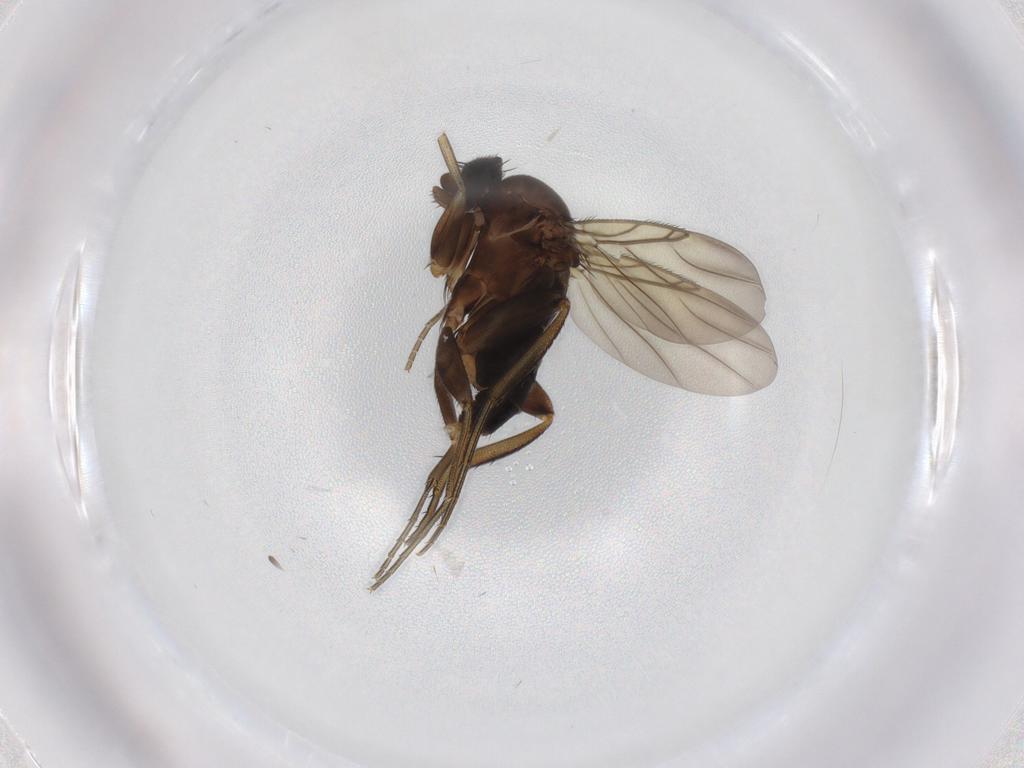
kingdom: Animalia
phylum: Arthropoda
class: Insecta
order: Diptera
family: Phoridae
